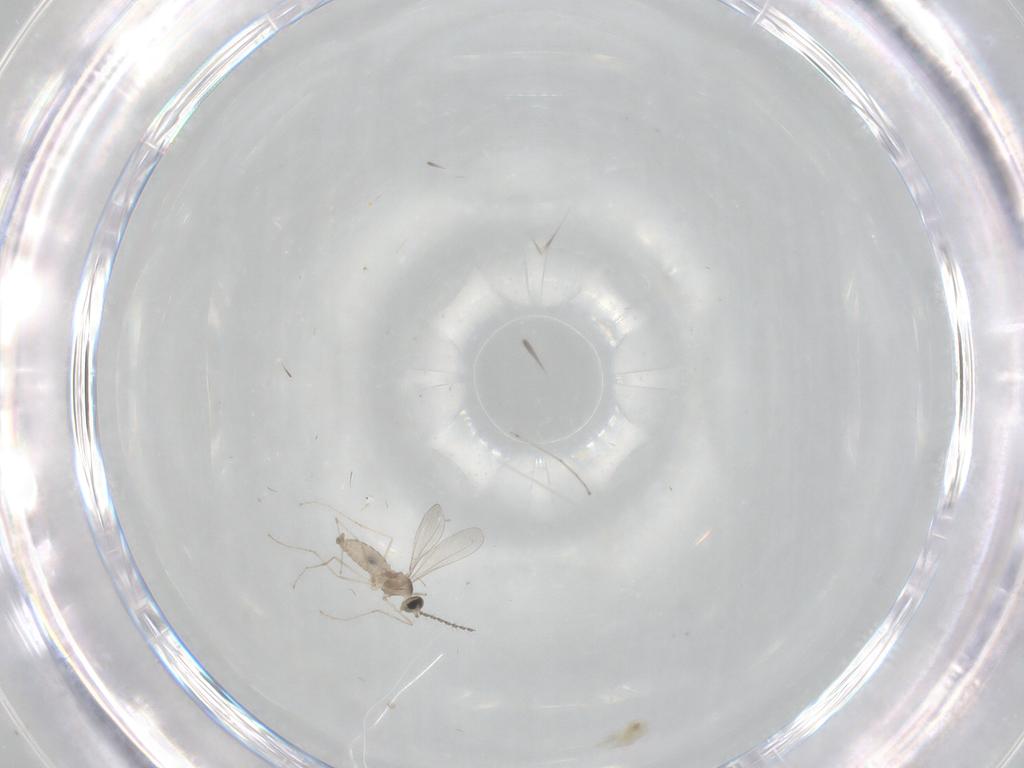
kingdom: Animalia
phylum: Arthropoda
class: Insecta
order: Diptera
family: Cecidomyiidae
